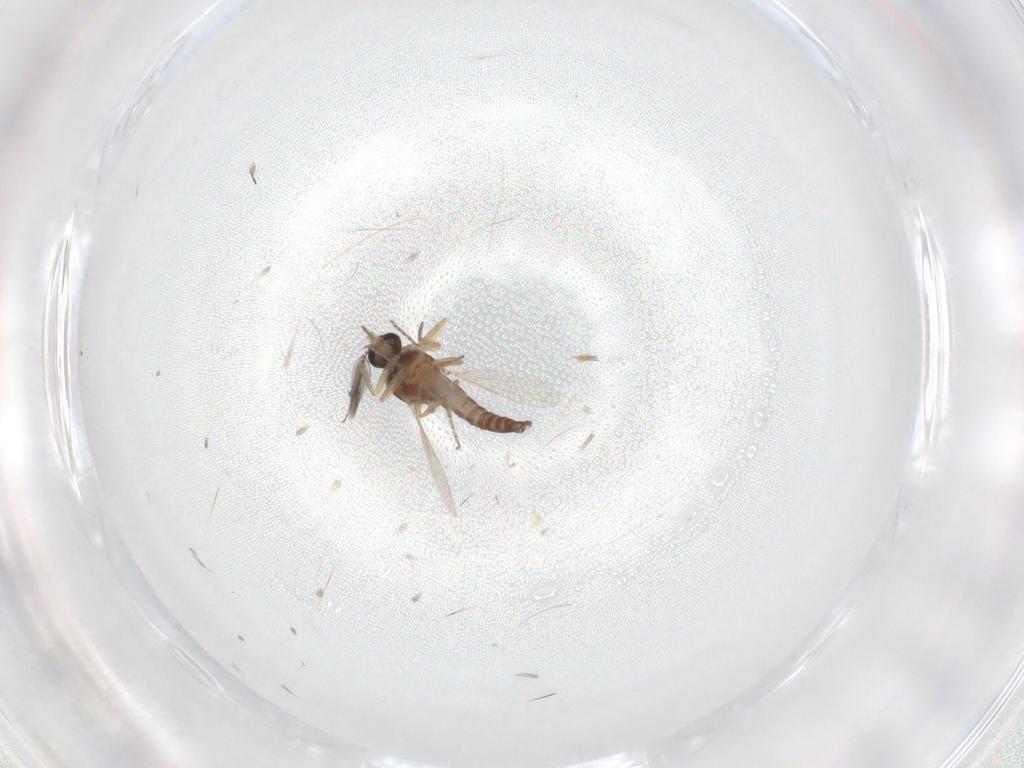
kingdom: Animalia
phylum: Arthropoda
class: Insecta
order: Diptera
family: Ceratopogonidae
